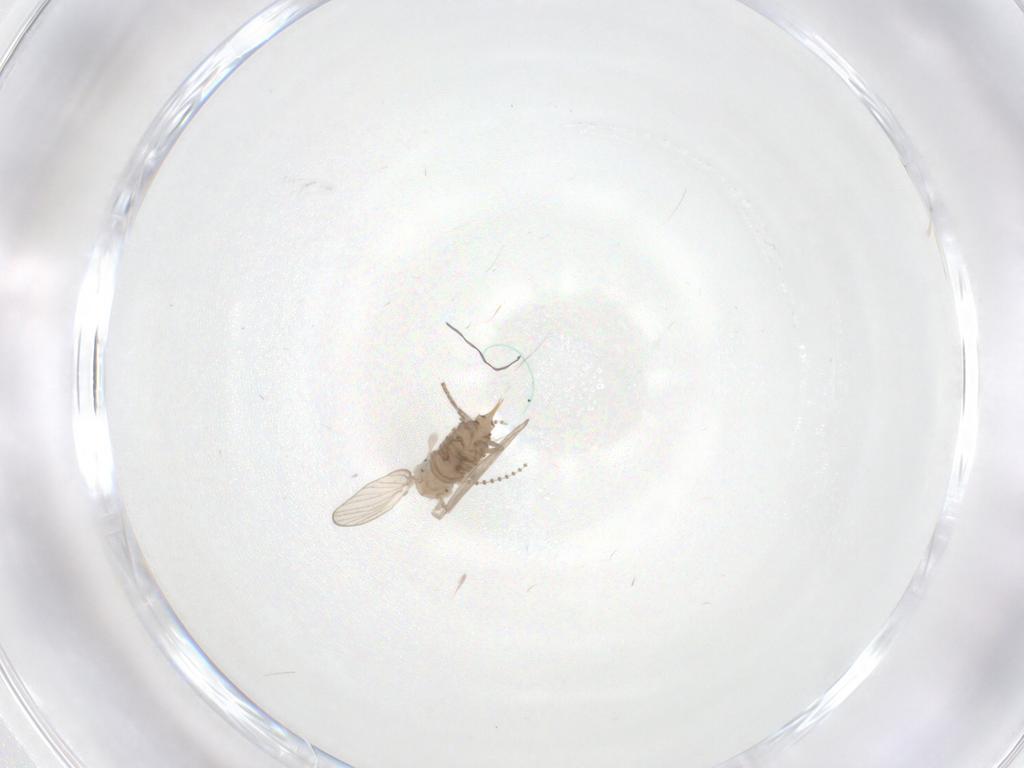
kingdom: Animalia
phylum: Arthropoda
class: Insecta
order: Diptera
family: Psychodidae
